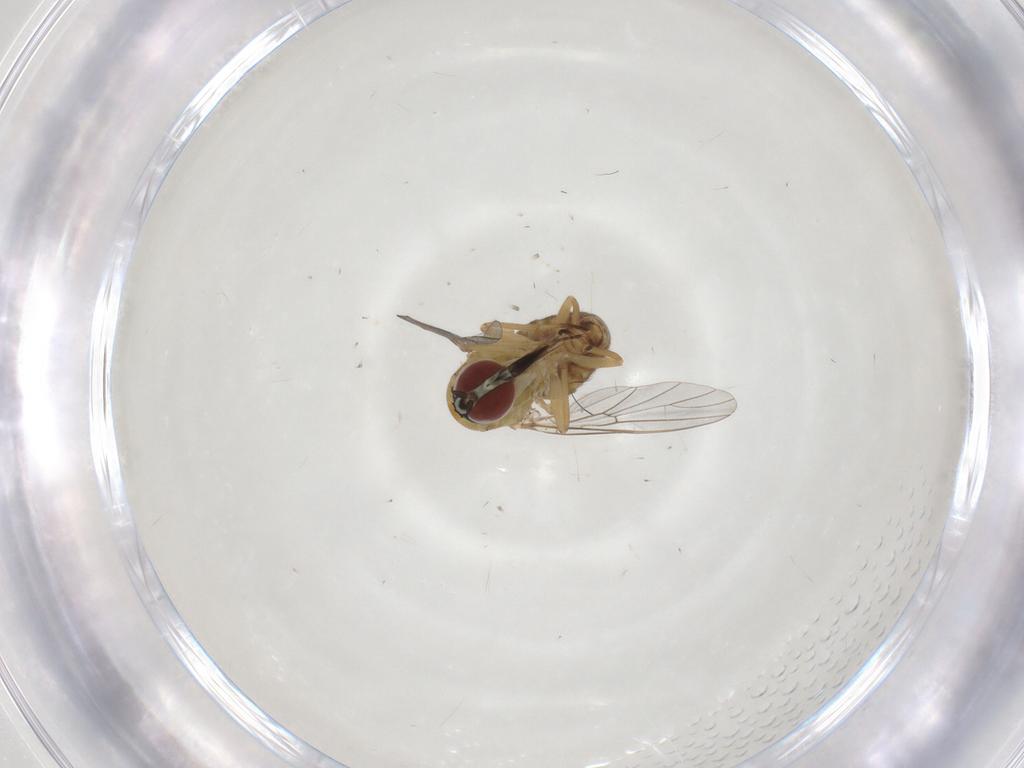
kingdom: Animalia
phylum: Arthropoda
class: Insecta
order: Diptera
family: Bombyliidae
